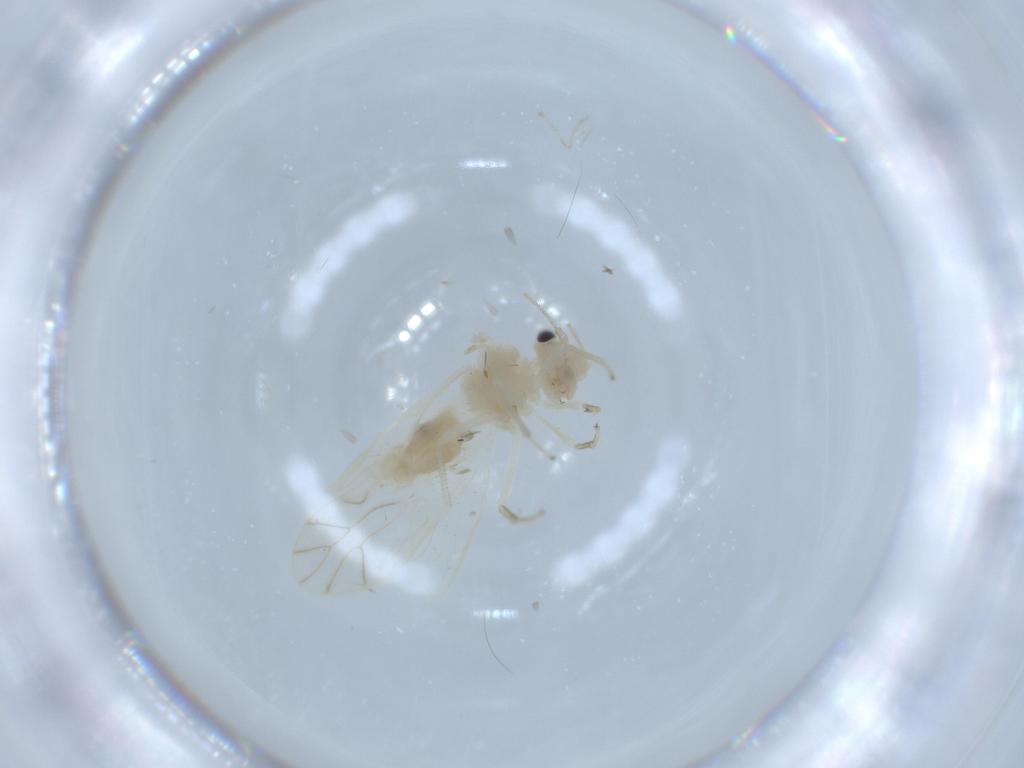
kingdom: Animalia
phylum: Arthropoda
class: Insecta
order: Psocodea
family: Caeciliusidae
